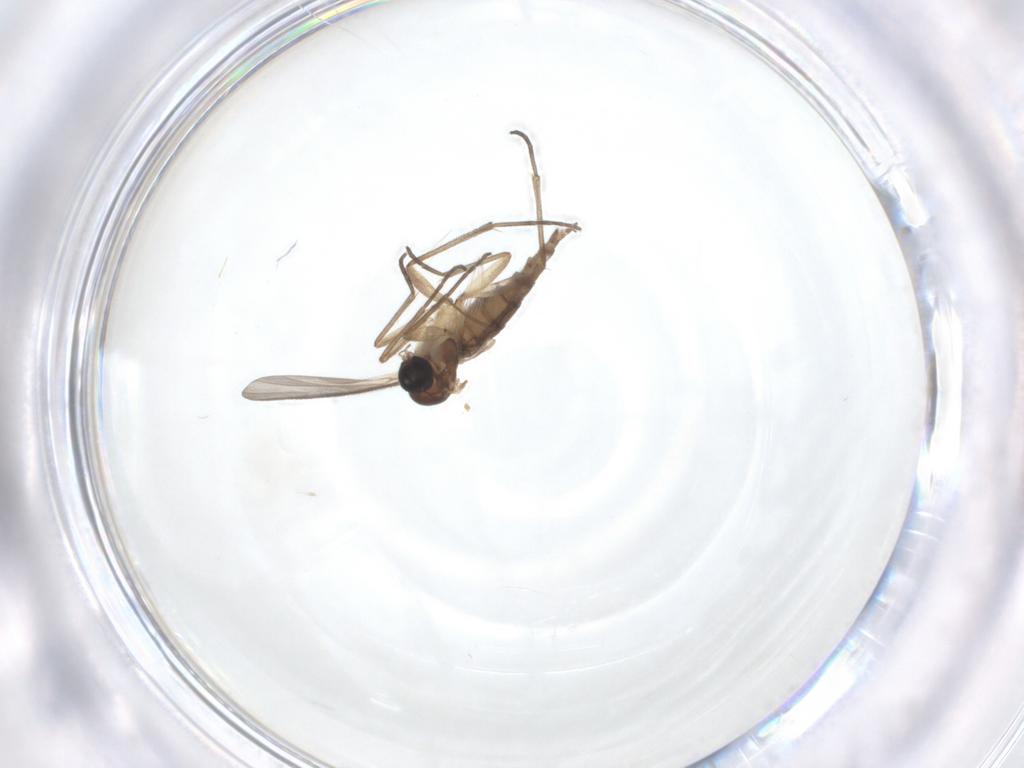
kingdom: Animalia
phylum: Arthropoda
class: Insecta
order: Diptera
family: Sciaridae
